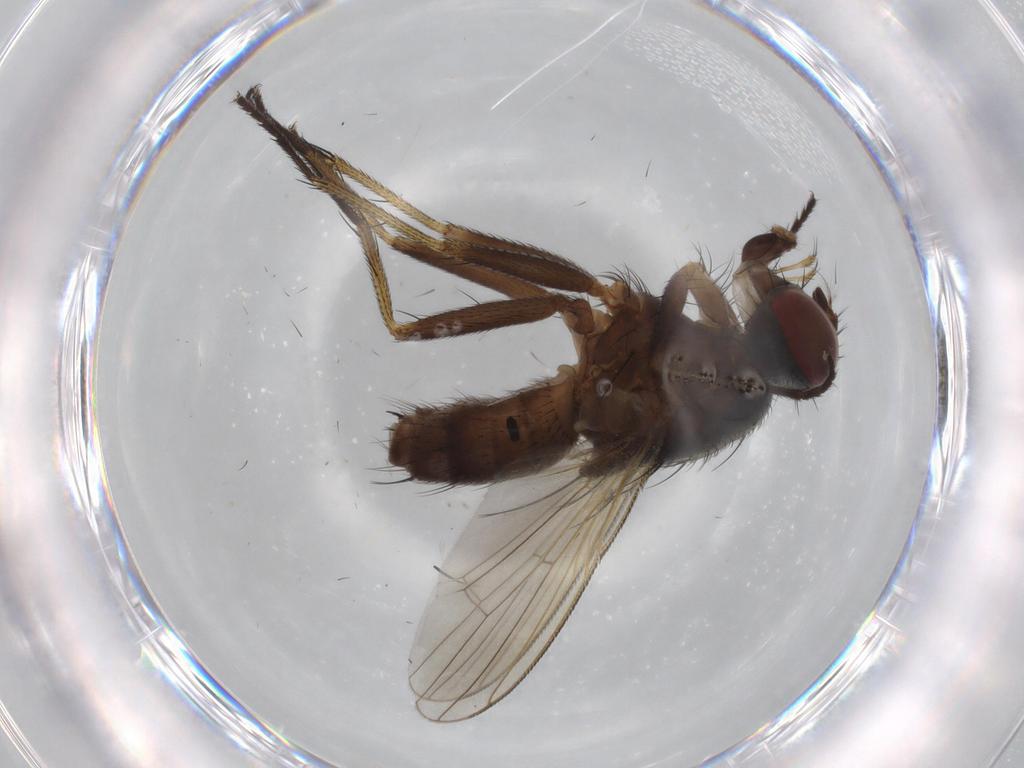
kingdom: Animalia
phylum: Arthropoda
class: Insecta
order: Diptera
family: Muscidae
